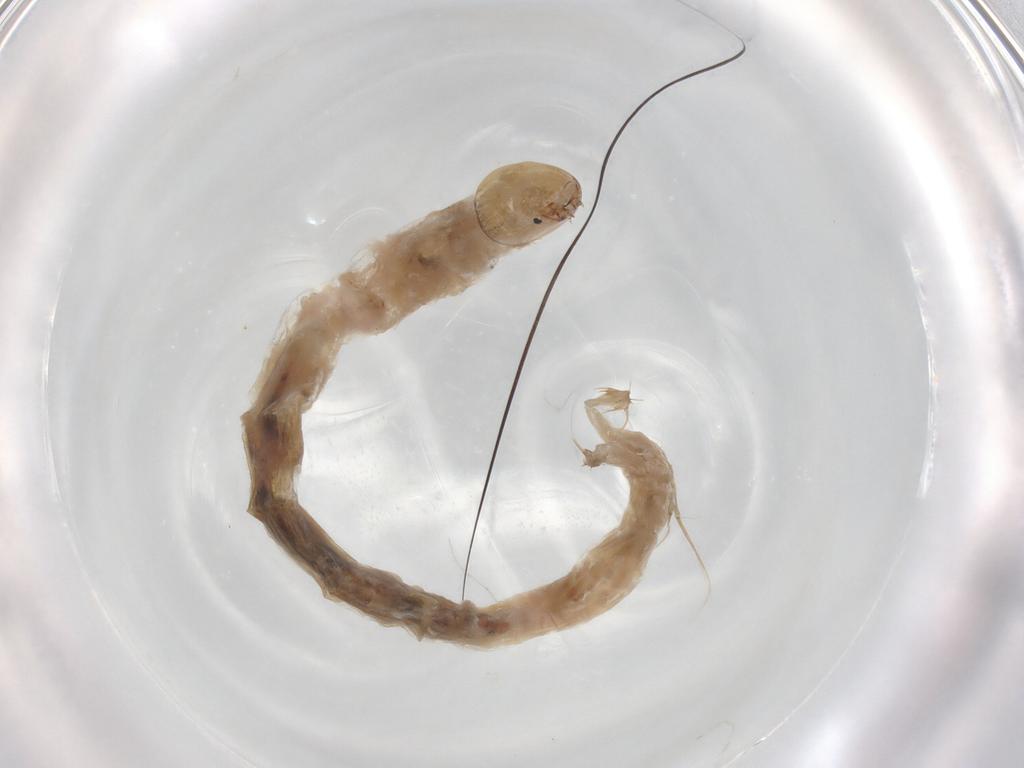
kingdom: Animalia
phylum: Arthropoda
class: Insecta
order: Diptera
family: Chironomidae
